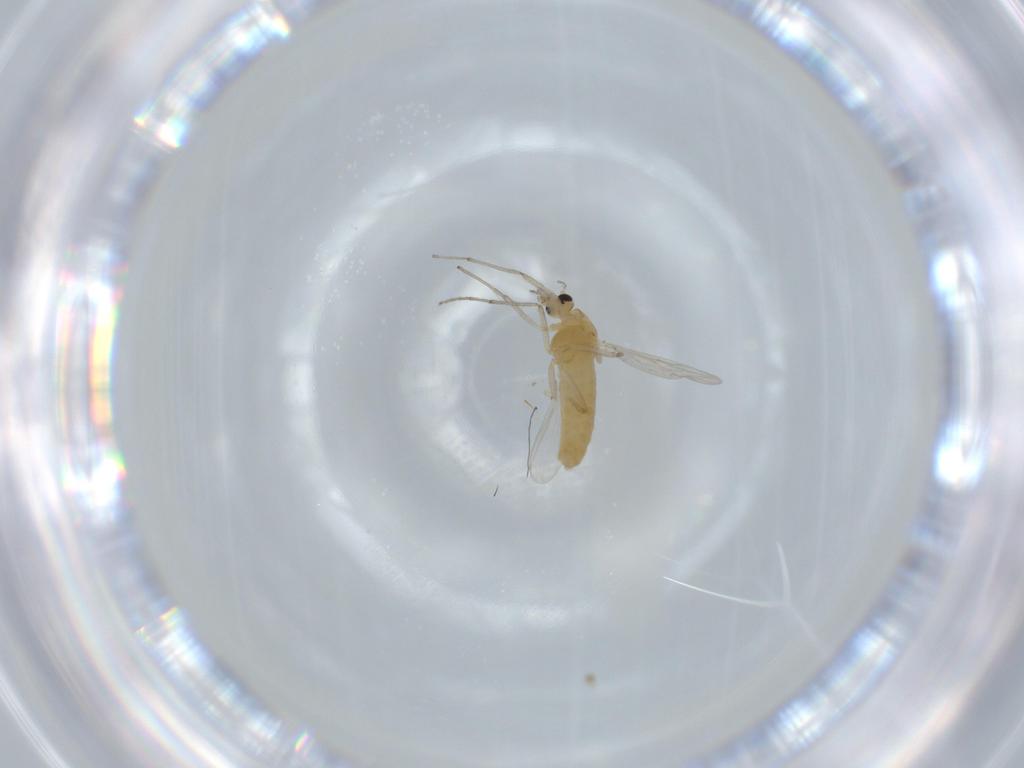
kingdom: Animalia
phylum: Arthropoda
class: Insecta
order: Diptera
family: Chironomidae
